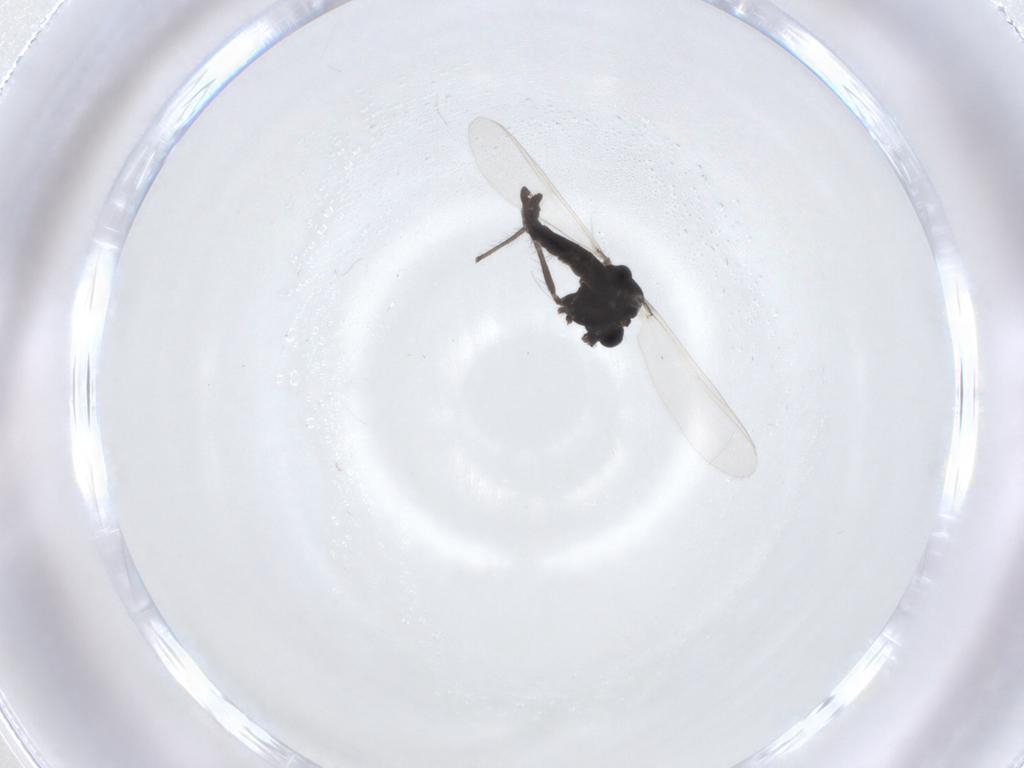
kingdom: Animalia
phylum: Arthropoda
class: Insecta
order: Diptera
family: Chironomidae
